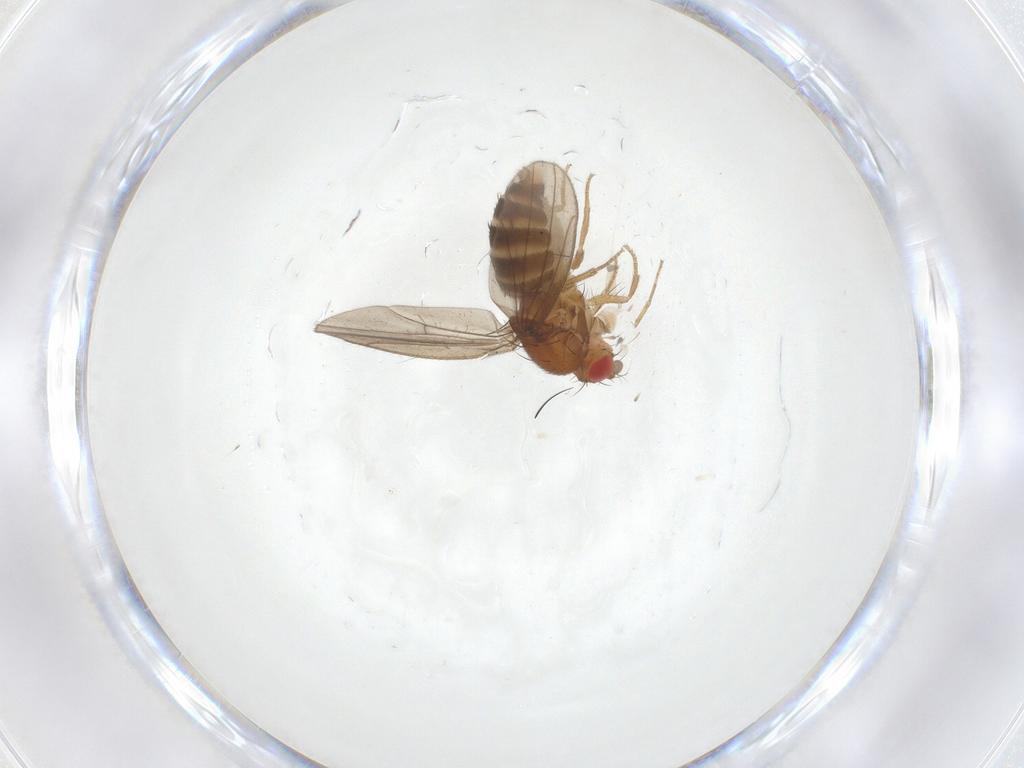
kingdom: Animalia
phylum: Arthropoda
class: Insecta
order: Diptera
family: Drosophilidae
